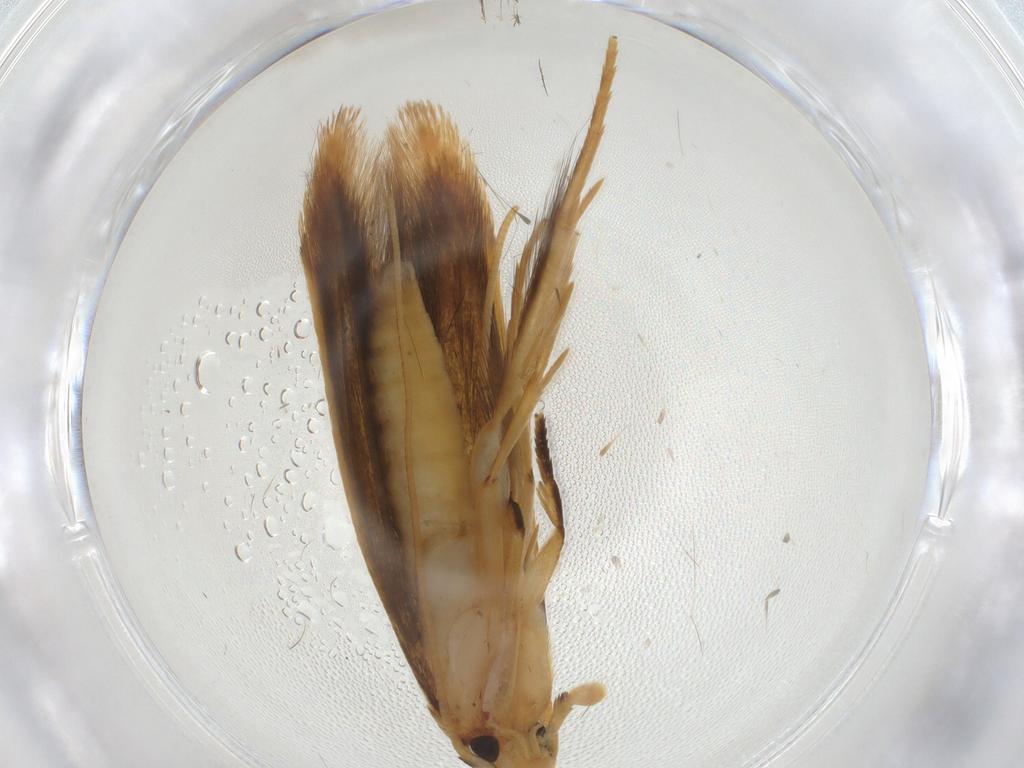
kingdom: Animalia
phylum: Arthropoda
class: Insecta
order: Lepidoptera
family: Tineidae
